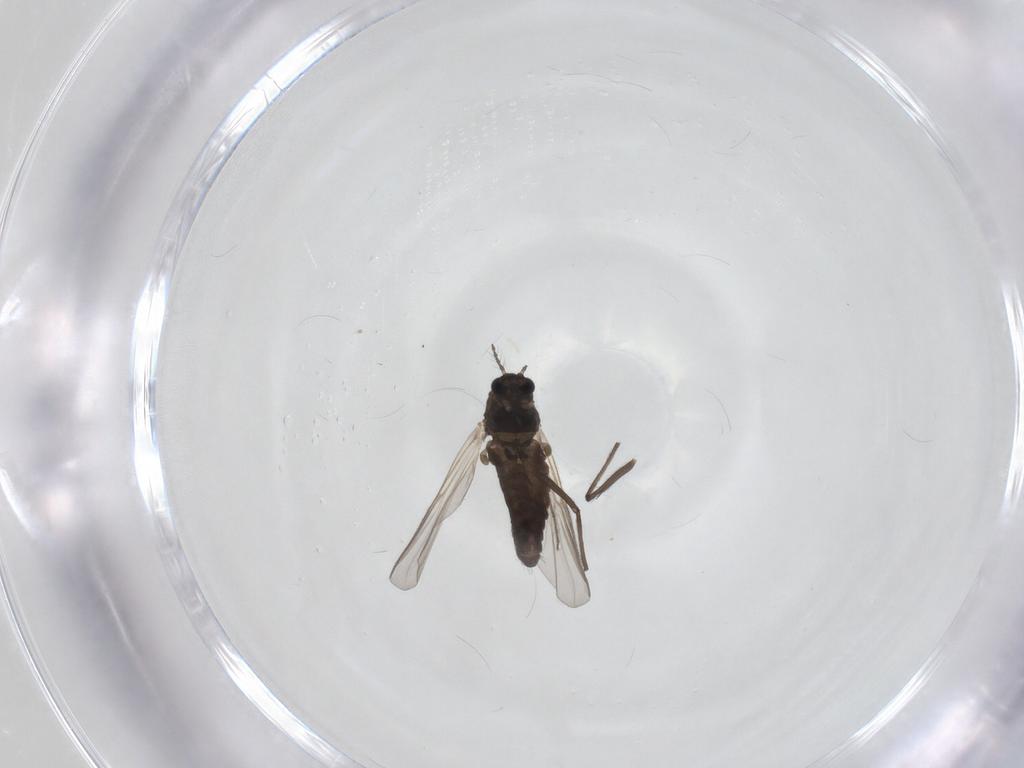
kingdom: Animalia
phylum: Arthropoda
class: Insecta
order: Diptera
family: Chironomidae
